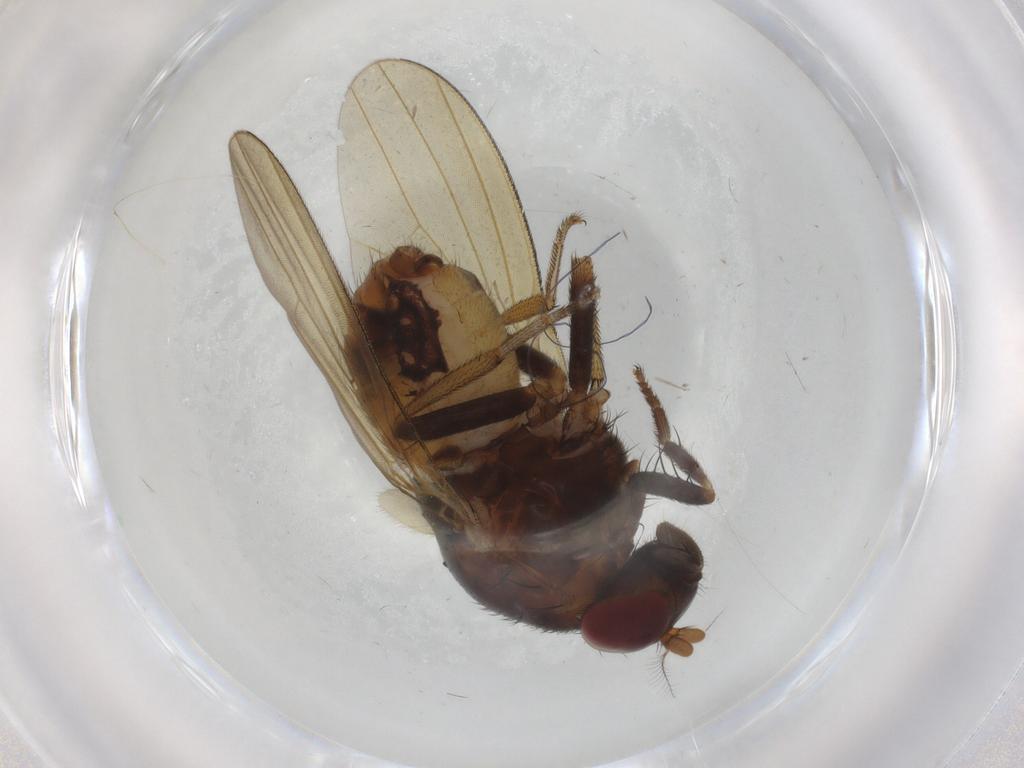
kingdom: Animalia
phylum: Arthropoda
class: Insecta
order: Diptera
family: Lauxaniidae
